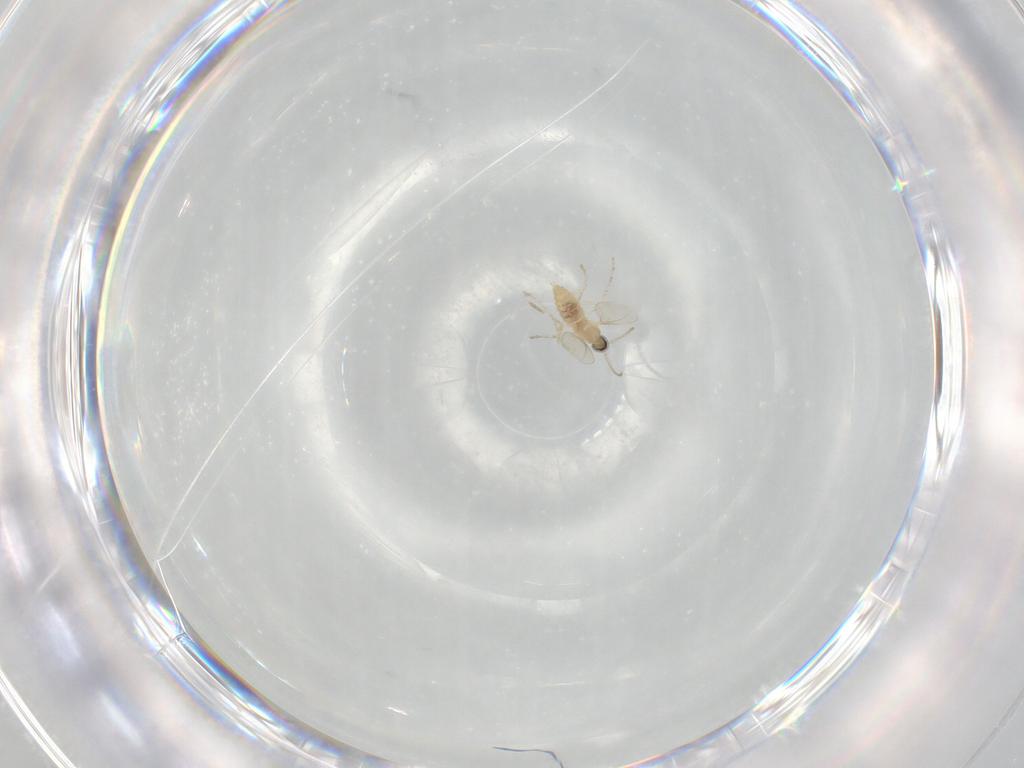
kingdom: Animalia
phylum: Arthropoda
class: Insecta
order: Diptera
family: Cecidomyiidae
